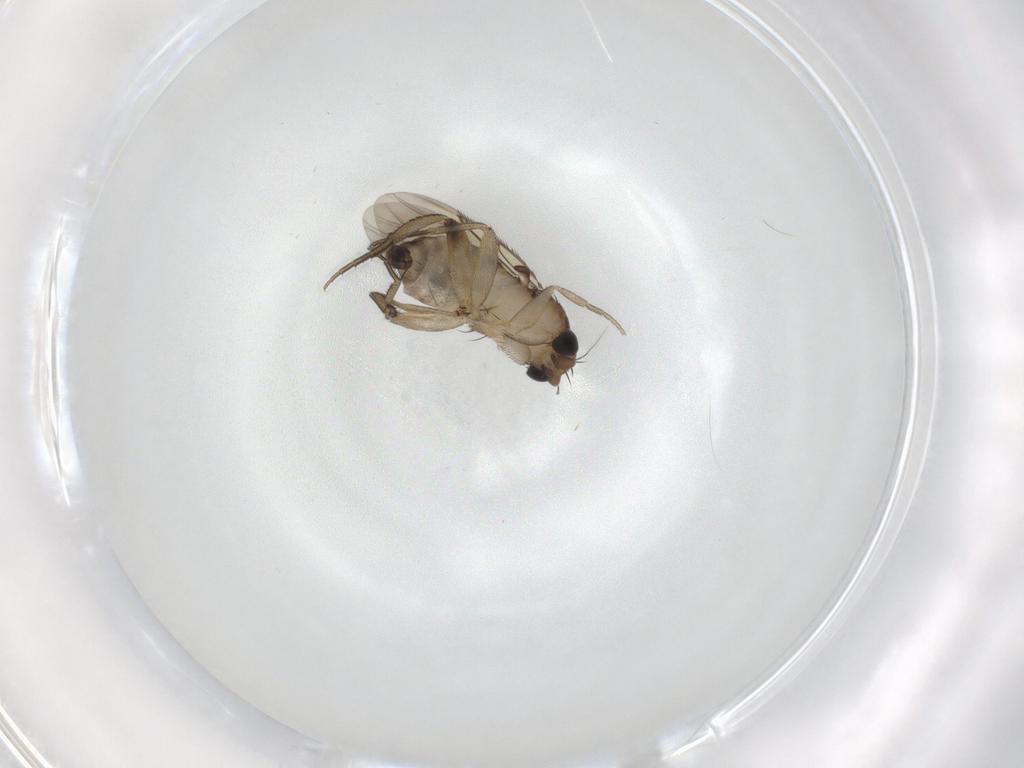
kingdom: Animalia
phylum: Arthropoda
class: Insecta
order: Diptera
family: Phoridae
